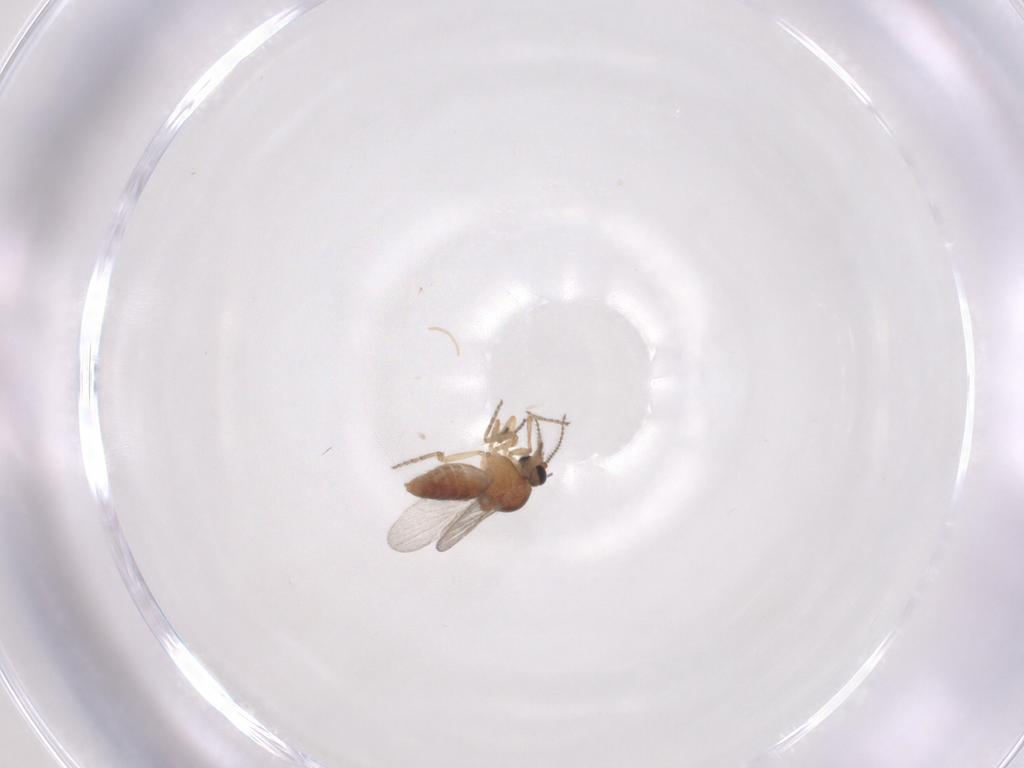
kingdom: Animalia
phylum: Arthropoda
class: Insecta
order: Diptera
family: Ceratopogonidae
